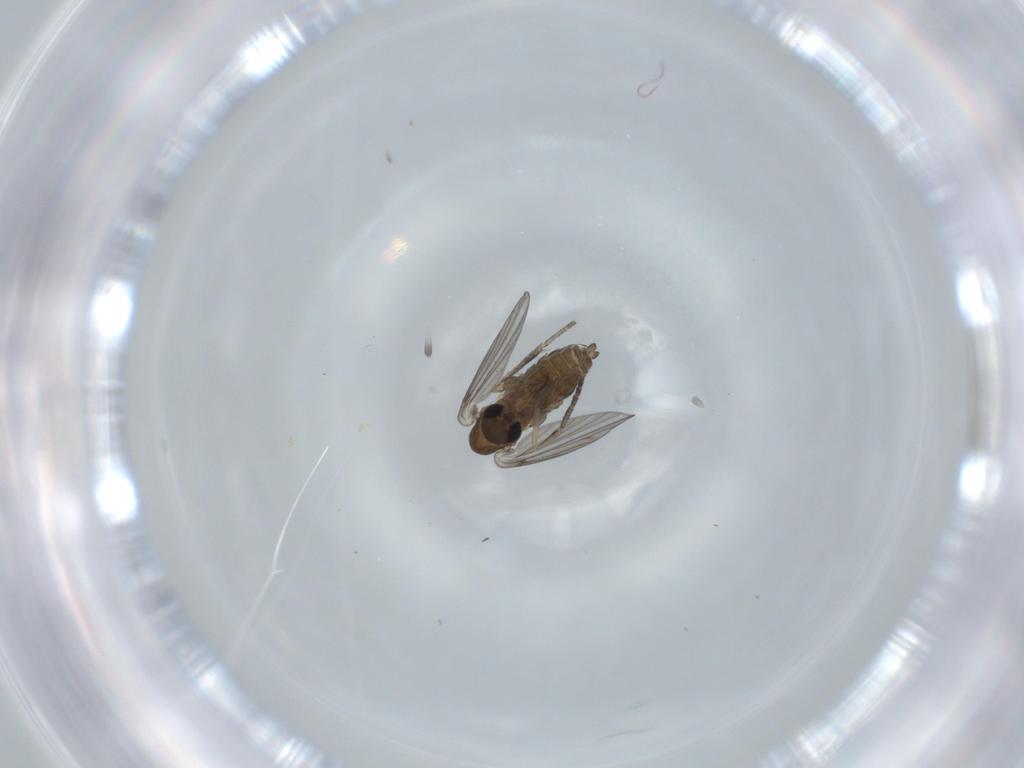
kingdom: Animalia
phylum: Arthropoda
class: Insecta
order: Diptera
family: Psychodidae
